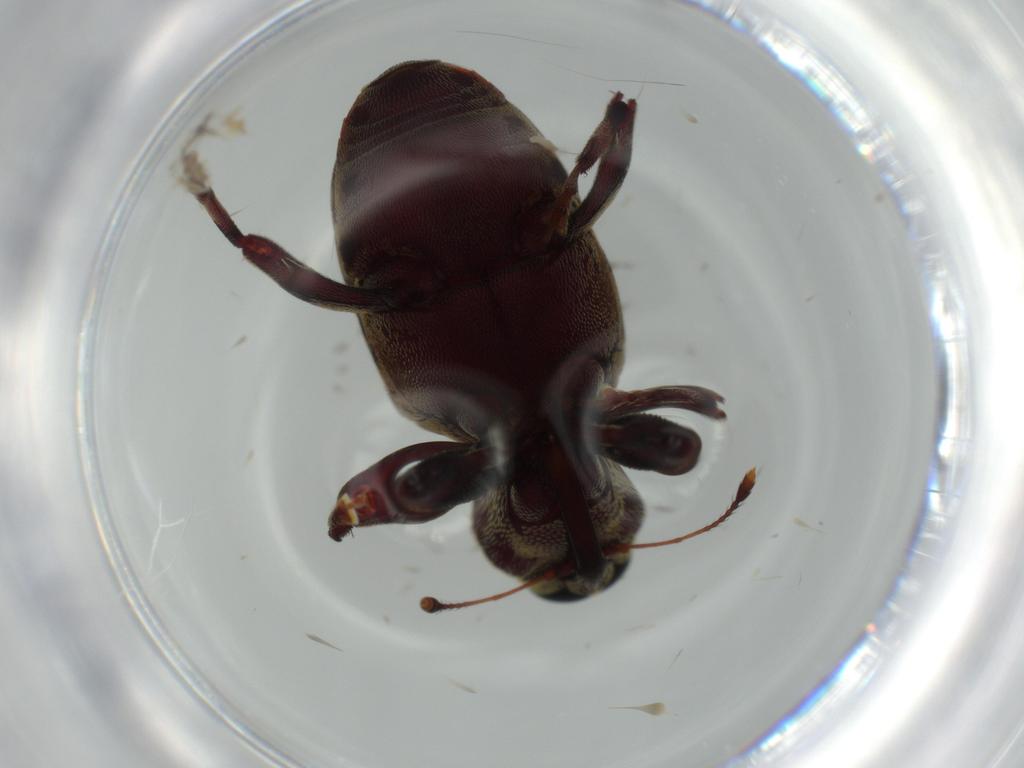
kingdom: Animalia
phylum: Arthropoda
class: Insecta
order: Coleoptera
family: Curculionidae
